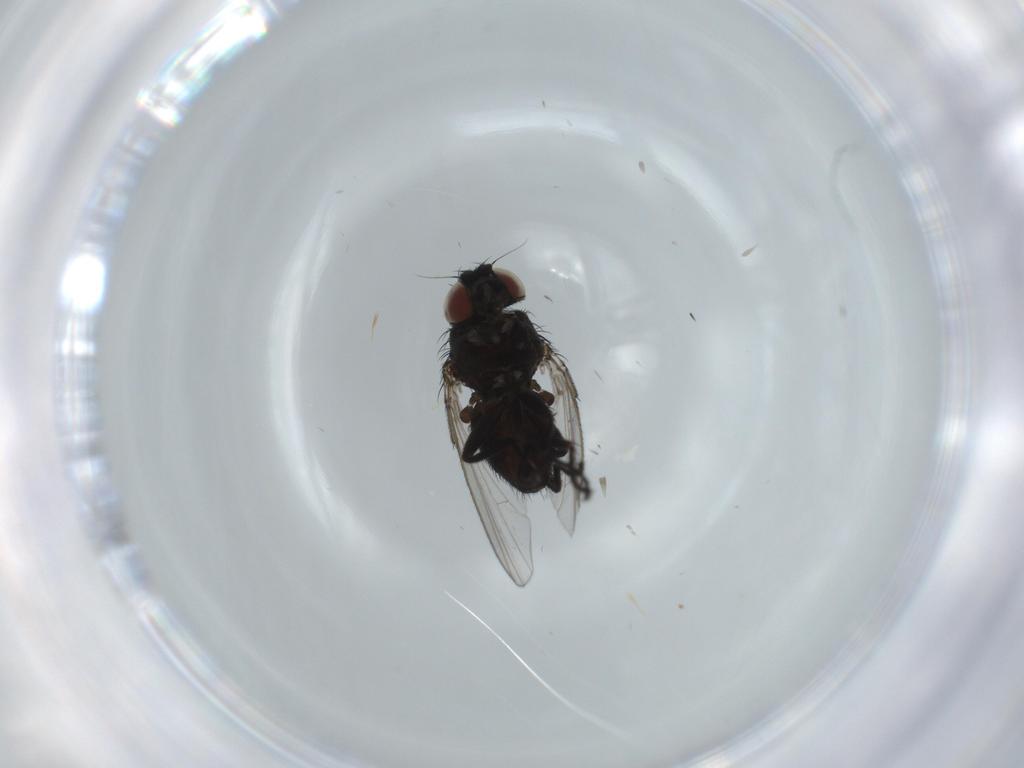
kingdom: Animalia
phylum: Arthropoda
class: Insecta
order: Diptera
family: Milichiidae
